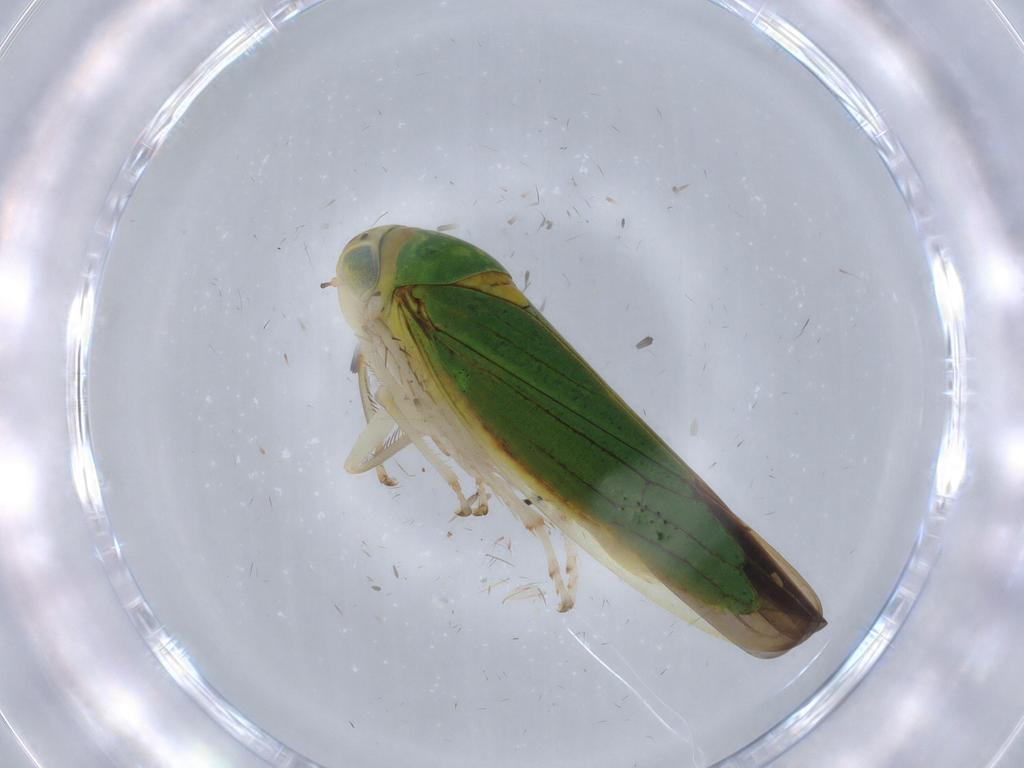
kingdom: Animalia
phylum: Arthropoda
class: Insecta
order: Hemiptera
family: Cicadellidae
